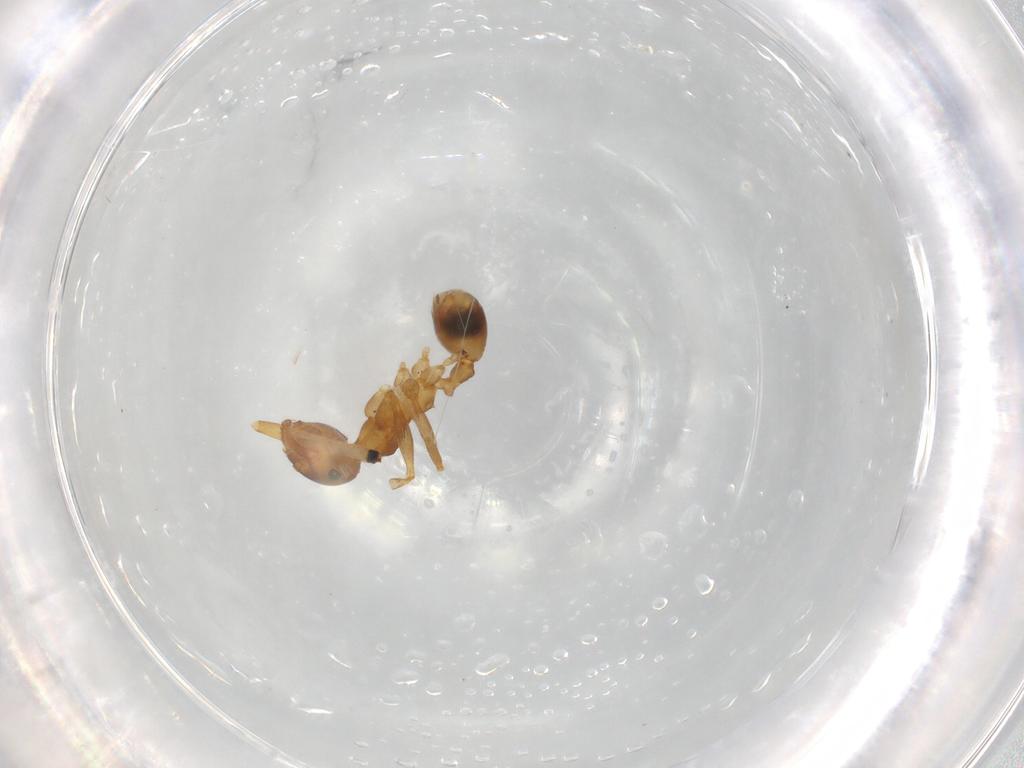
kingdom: Animalia
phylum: Arthropoda
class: Insecta
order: Hymenoptera
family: Formicidae
